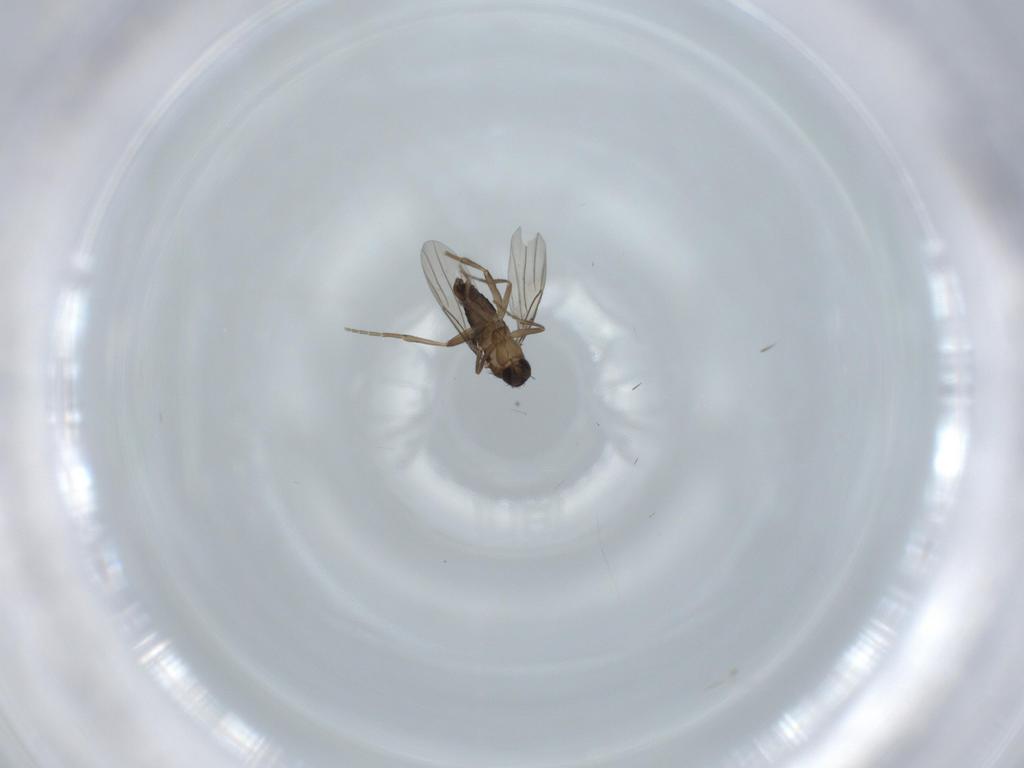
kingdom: Animalia
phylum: Arthropoda
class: Insecta
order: Diptera
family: Phoridae
